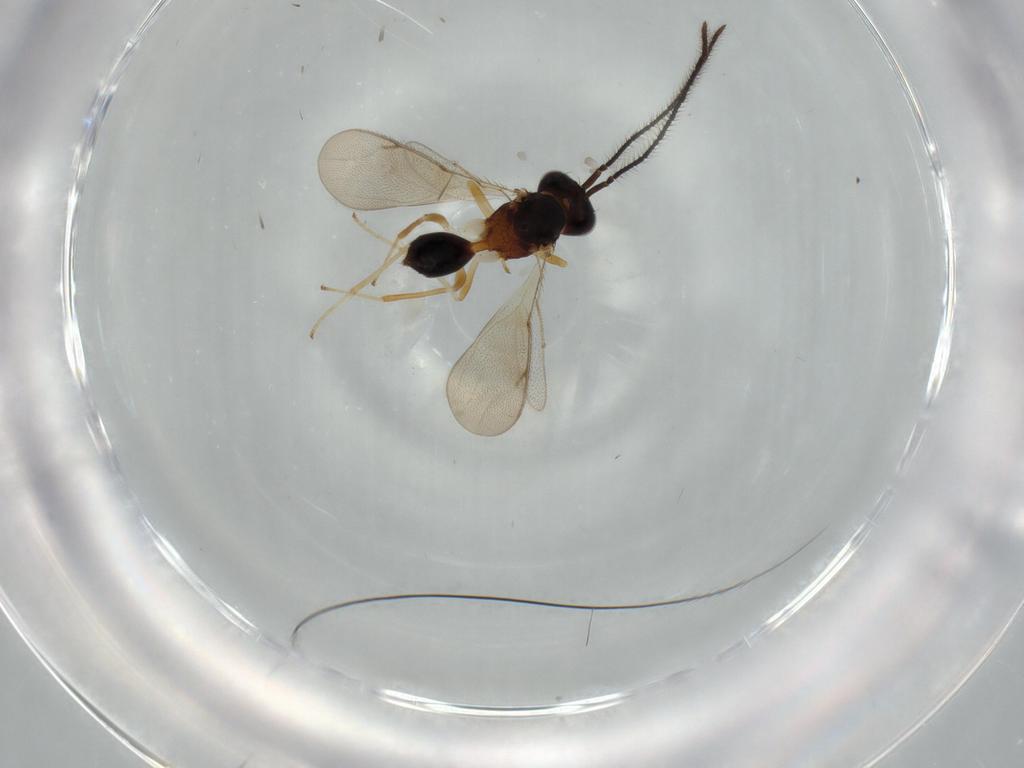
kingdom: Animalia
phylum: Arthropoda
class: Insecta
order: Hymenoptera
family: Diparidae
